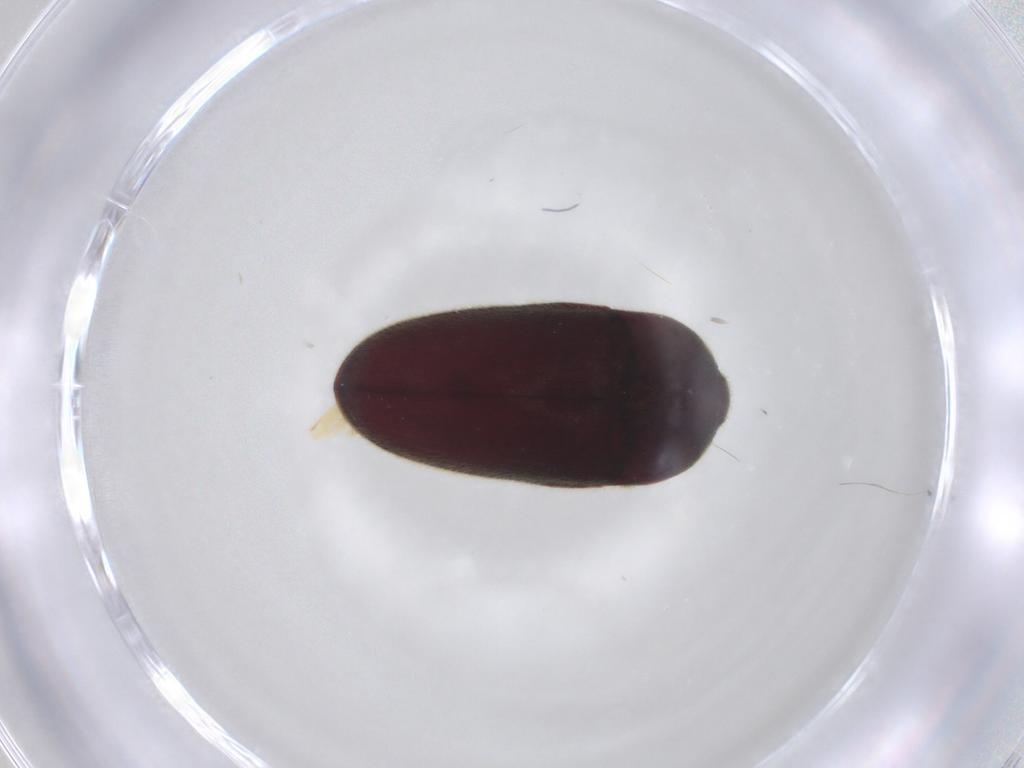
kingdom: Animalia
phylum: Arthropoda
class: Insecta
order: Coleoptera
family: Throscidae
